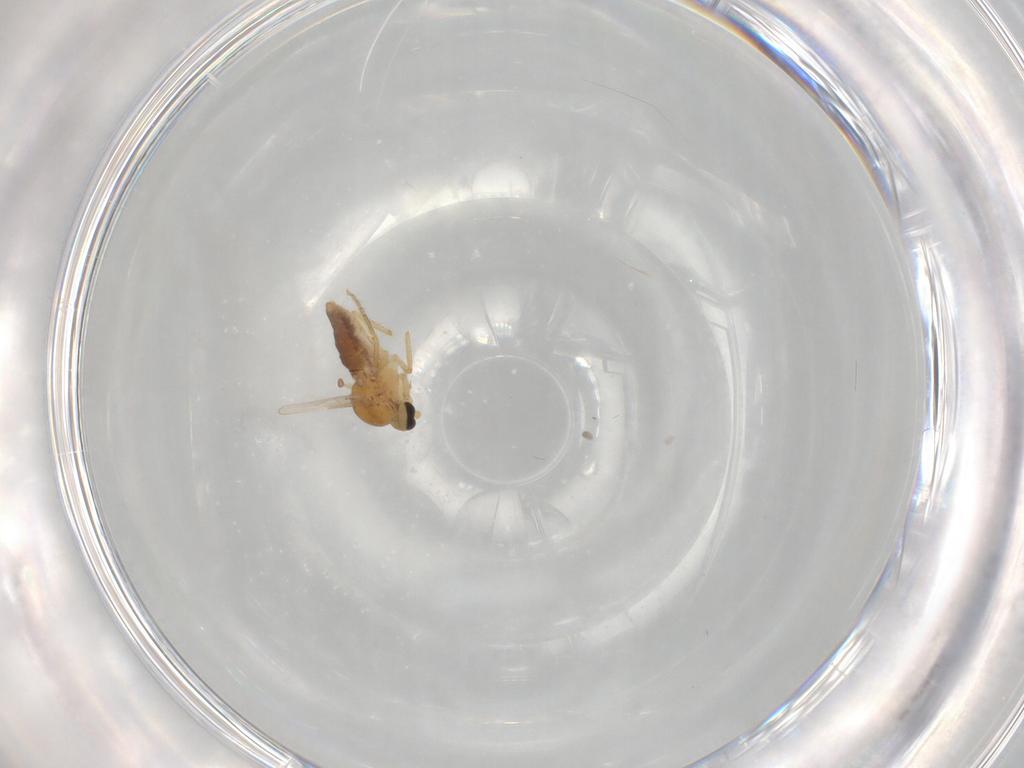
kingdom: Animalia
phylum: Arthropoda
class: Insecta
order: Diptera
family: Ceratopogonidae
